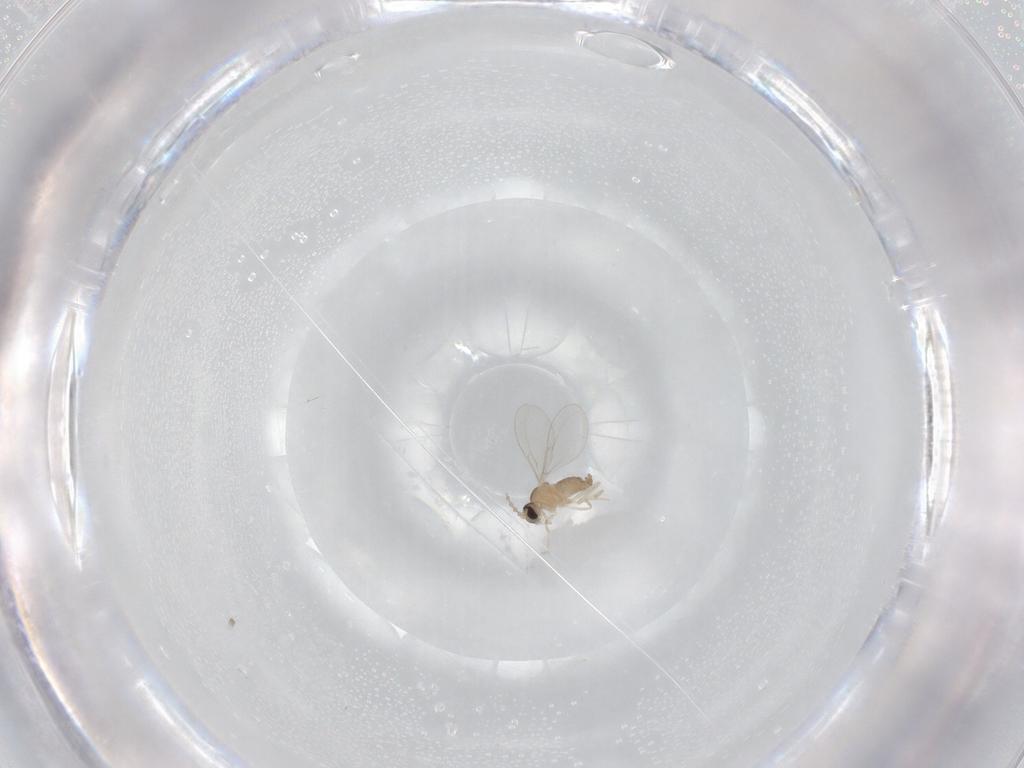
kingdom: Animalia
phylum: Arthropoda
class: Insecta
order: Diptera
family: Cecidomyiidae
